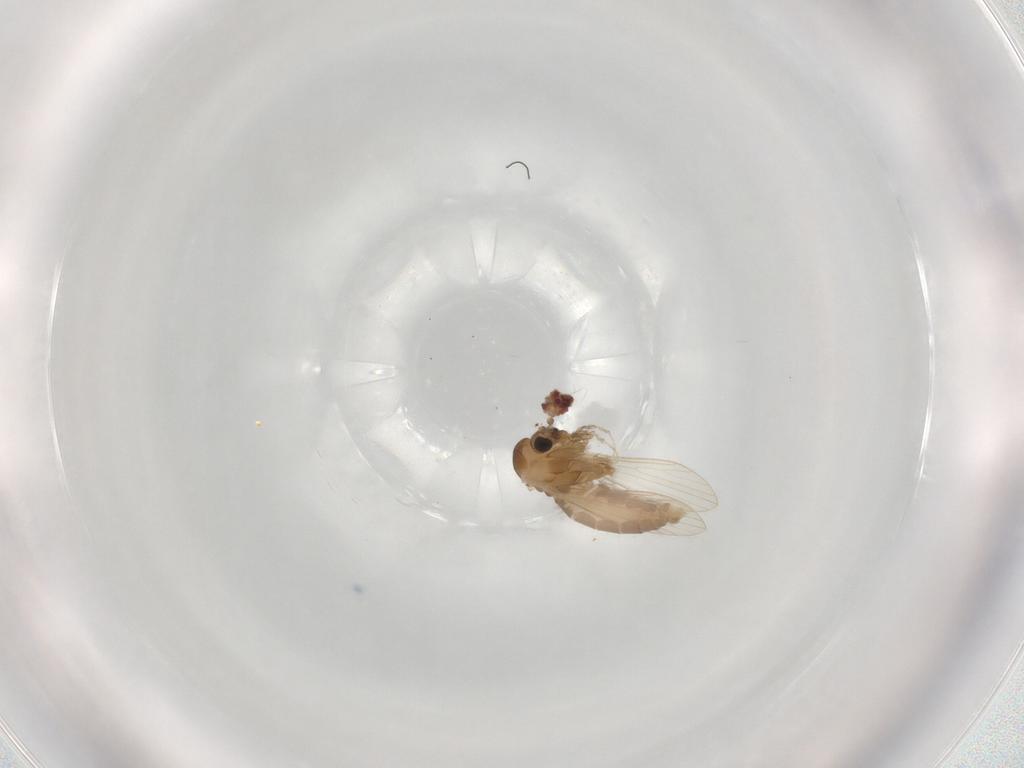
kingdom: Animalia
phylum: Arthropoda
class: Insecta
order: Diptera
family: Psychodidae
